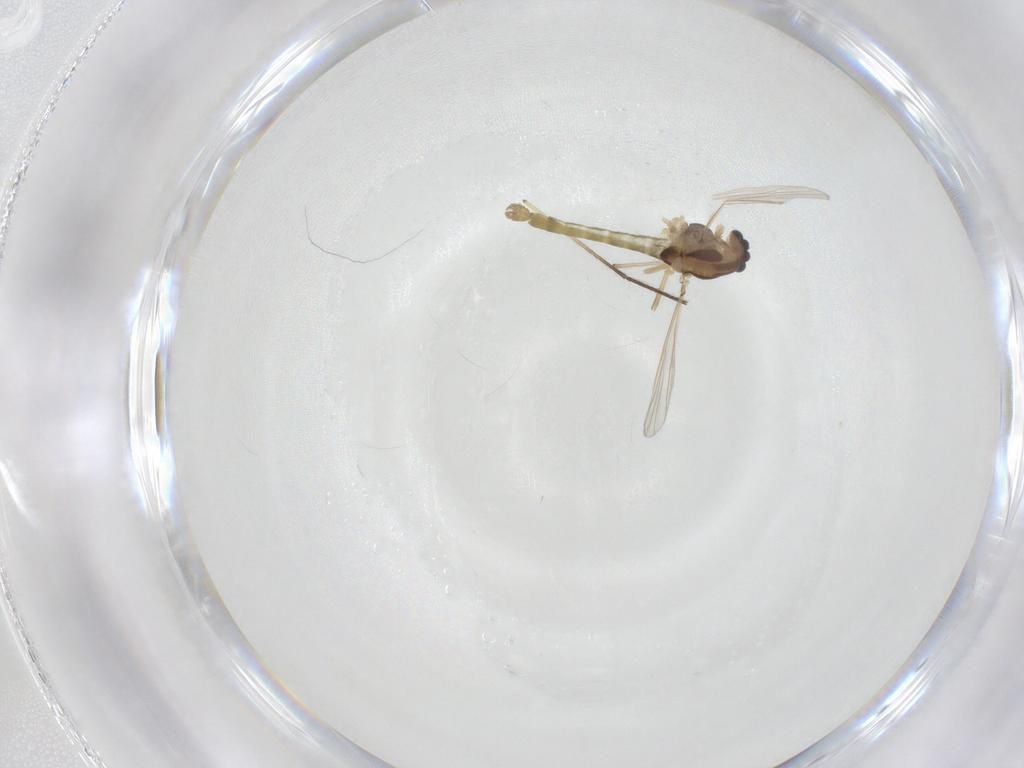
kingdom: Animalia
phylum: Arthropoda
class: Insecta
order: Diptera
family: Chironomidae
